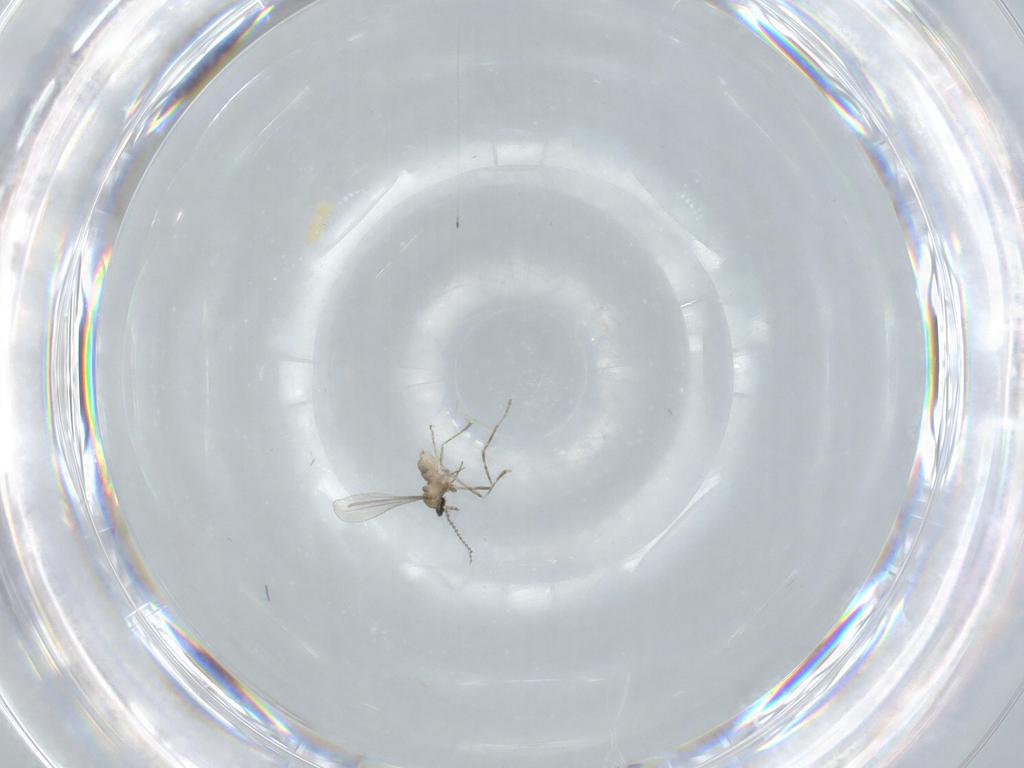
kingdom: Animalia
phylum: Arthropoda
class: Insecta
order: Diptera
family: Cecidomyiidae
